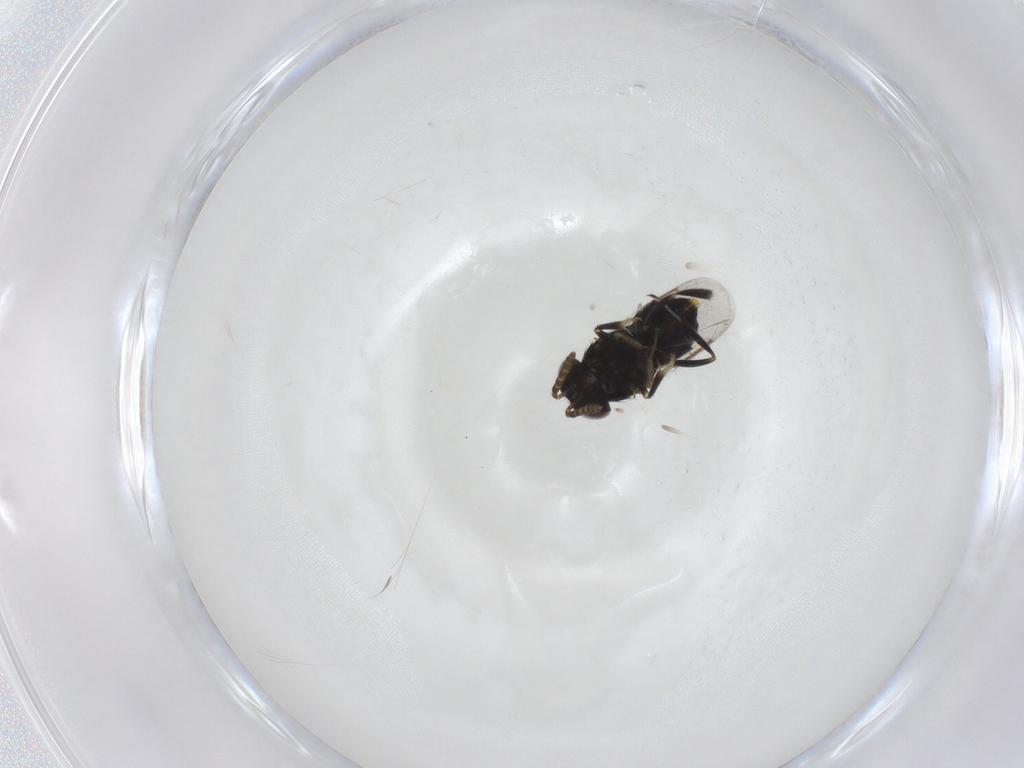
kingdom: Animalia
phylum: Arthropoda
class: Insecta
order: Hymenoptera
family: Aphelinidae
